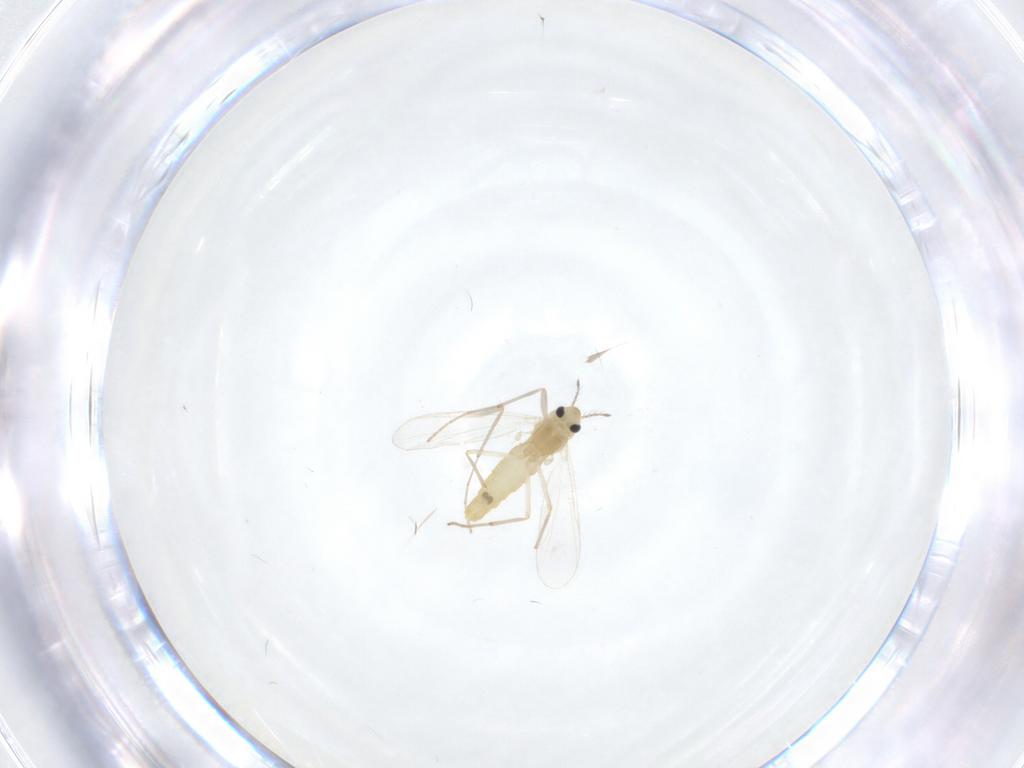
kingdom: Animalia
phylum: Arthropoda
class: Insecta
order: Diptera
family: Chironomidae
